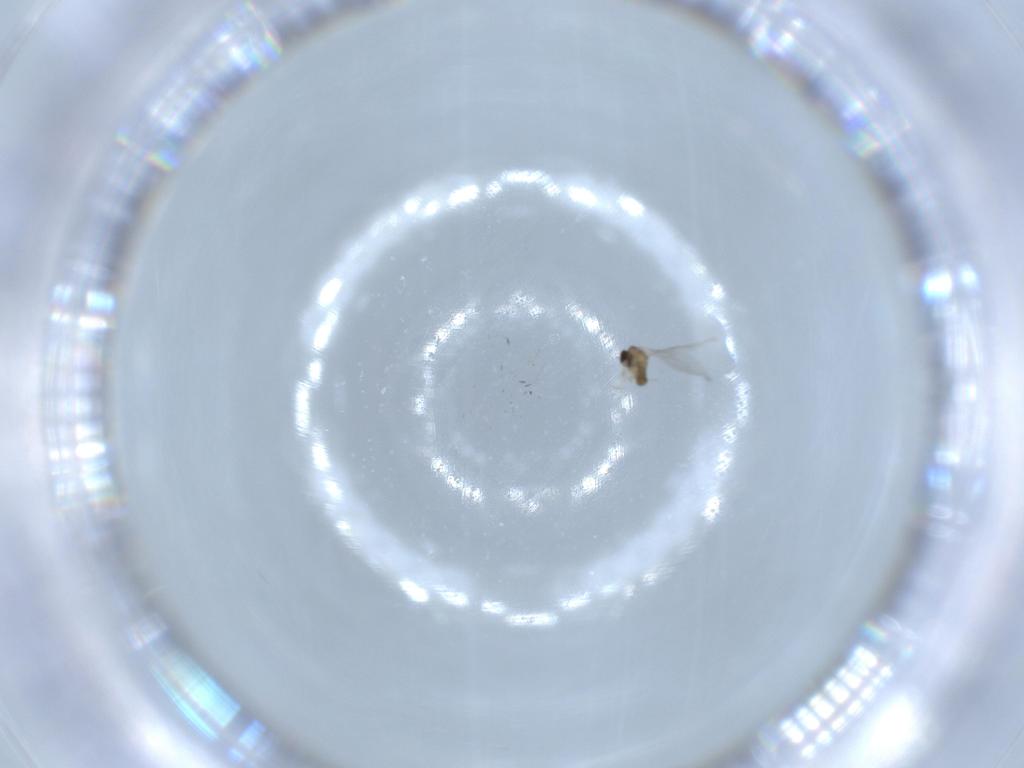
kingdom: Animalia
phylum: Arthropoda
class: Insecta
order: Diptera
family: Cecidomyiidae
